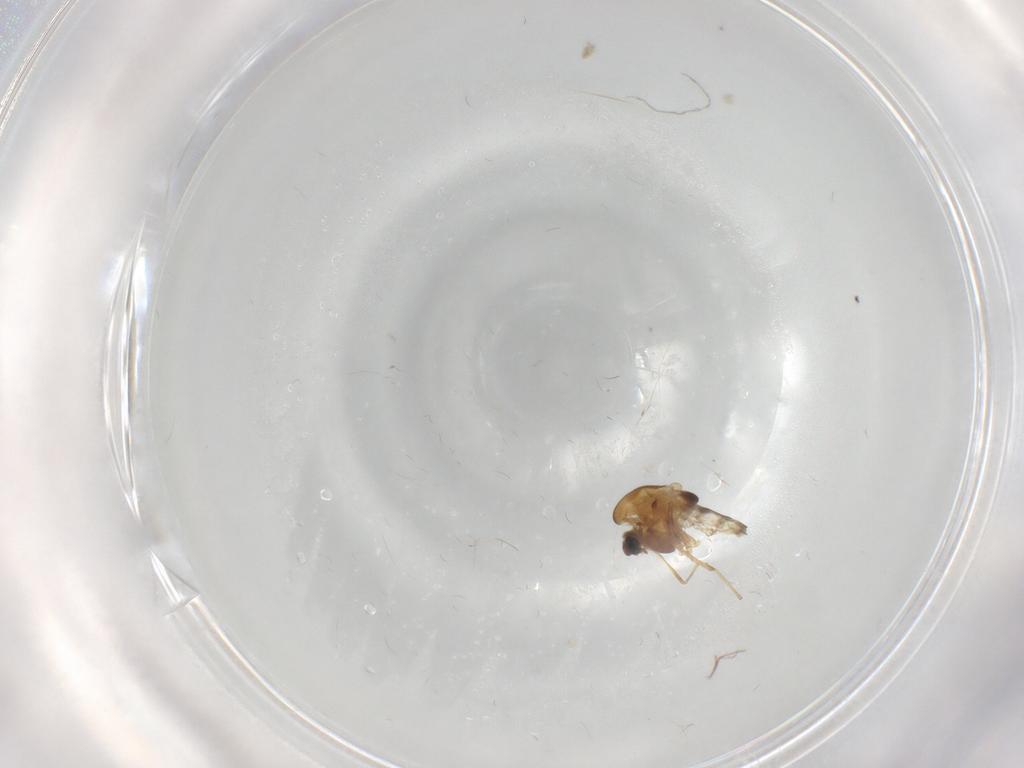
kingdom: Animalia
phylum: Arthropoda
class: Insecta
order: Diptera
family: Chironomidae
